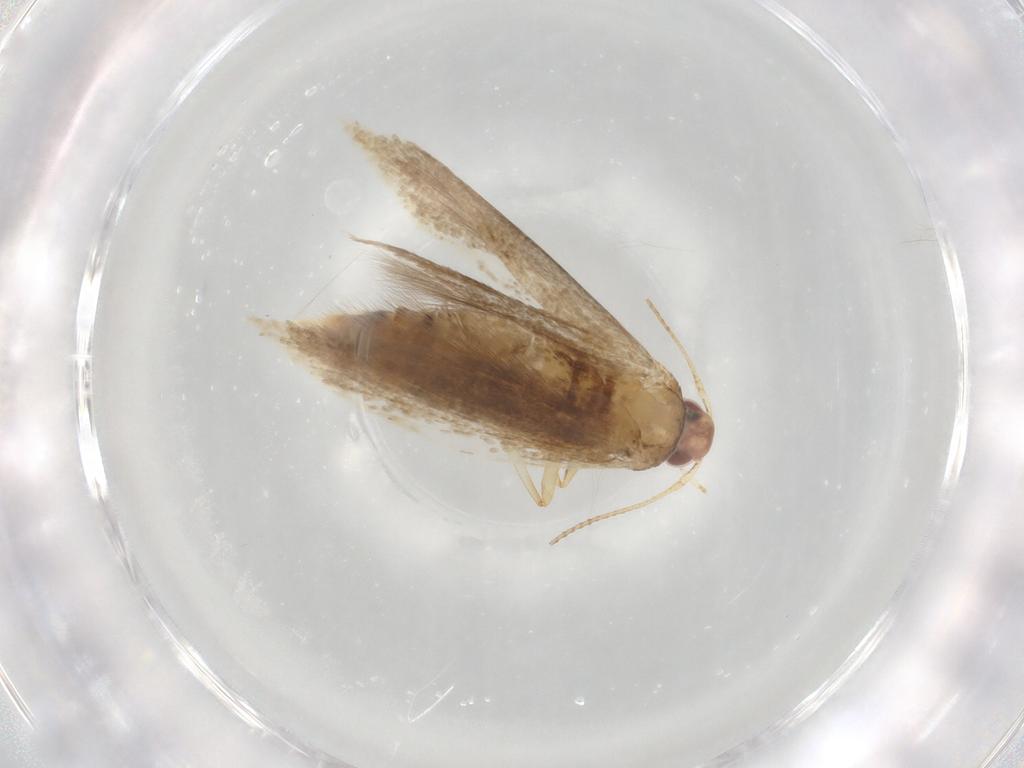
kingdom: Animalia
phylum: Arthropoda
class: Insecta
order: Lepidoptera
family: Cosmopterigidae
